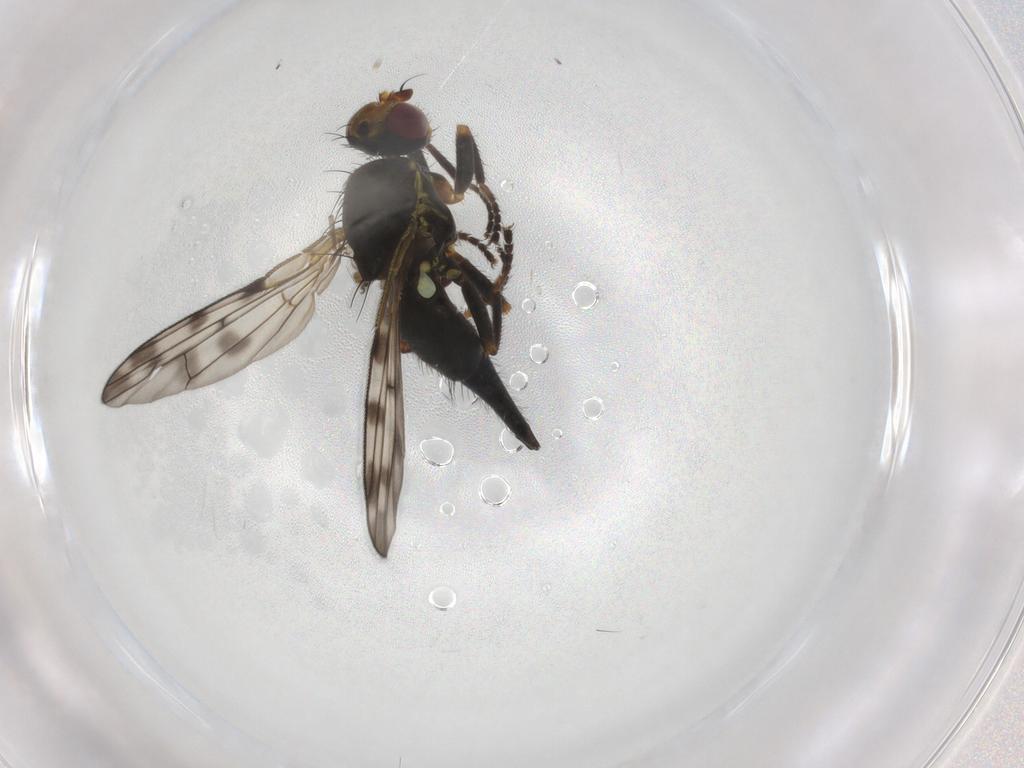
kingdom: Animalia
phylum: Arthropoda
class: Insecta
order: Diptera
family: Tephritidae
